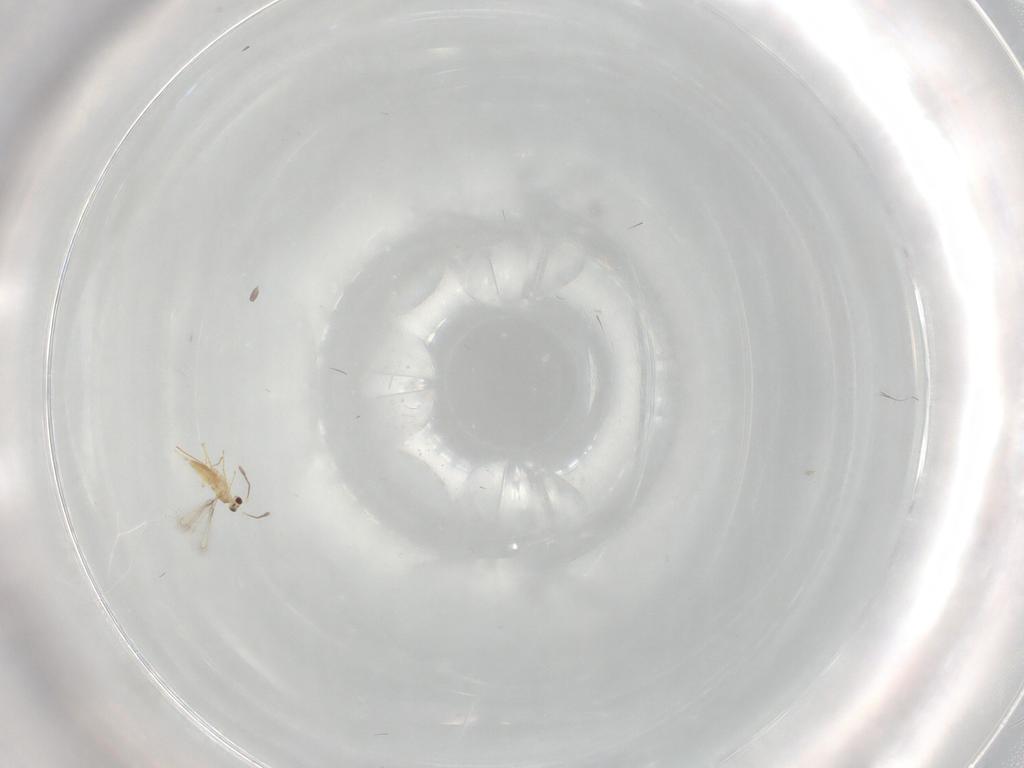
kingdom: Animalia
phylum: Arthropoda
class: Insecta
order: Hymenoptera
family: Mymaridae
